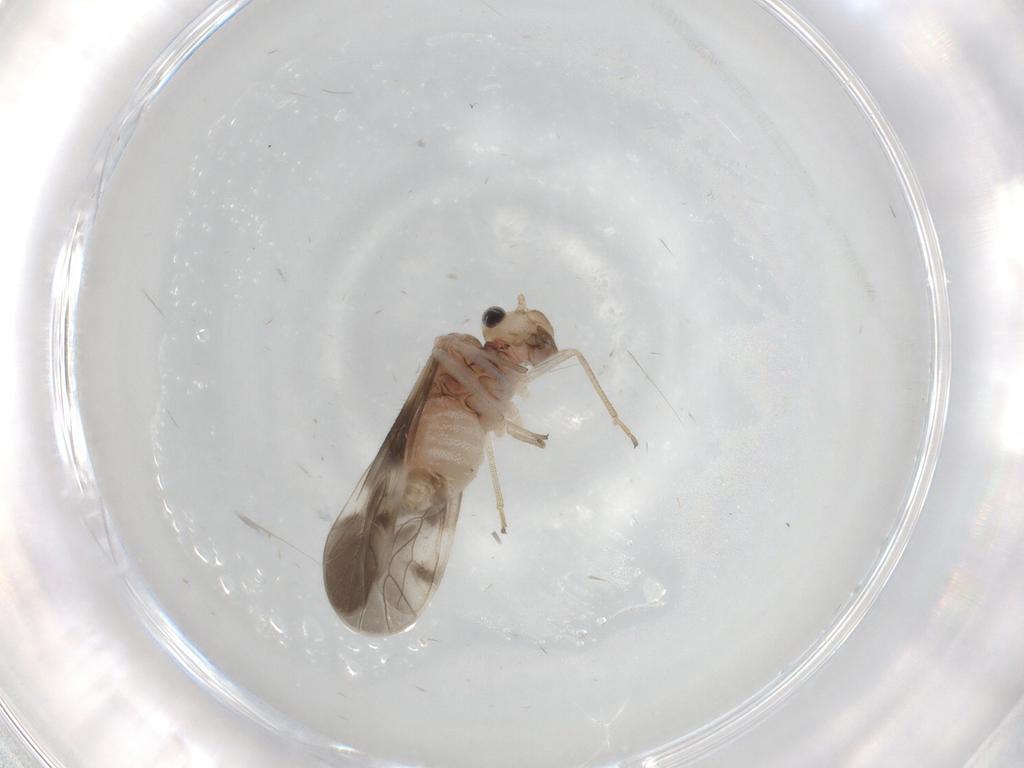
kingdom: Animalia
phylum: Arthropoda
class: Insecta
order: Psocodea
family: Caeciliusidae
